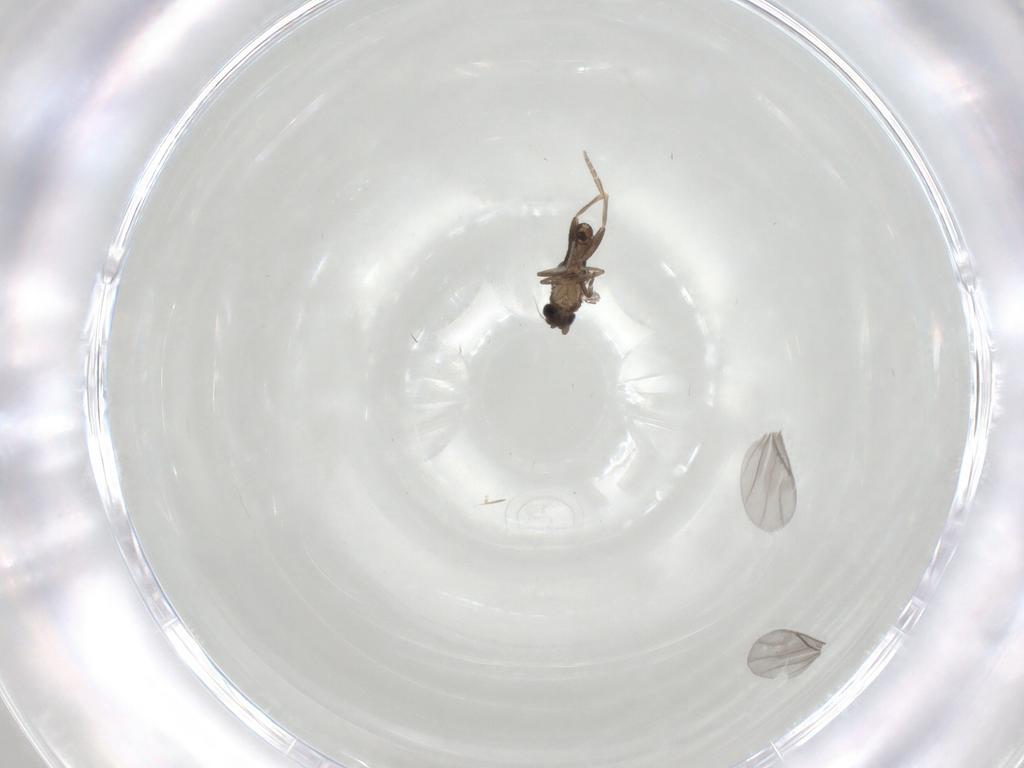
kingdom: Animalia
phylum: Arthropoda
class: Insecta
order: Diptera
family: Phoridae
